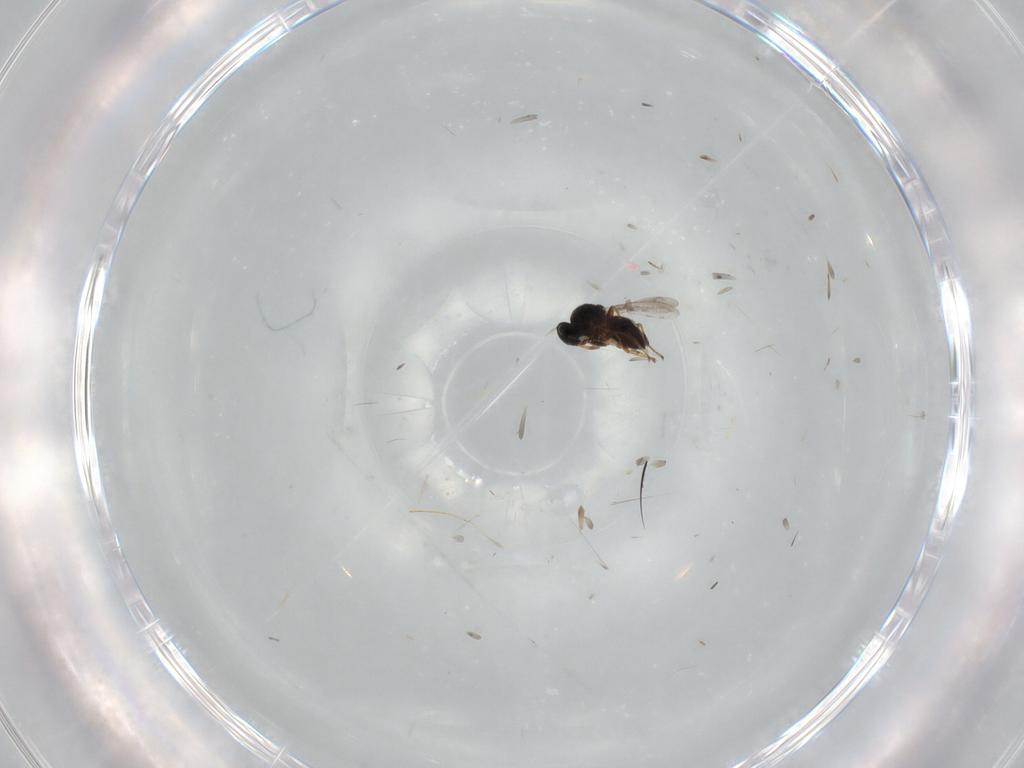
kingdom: Animalia
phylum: Arthropoda
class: Insecta
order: Hymenoptera
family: Platygastridae
